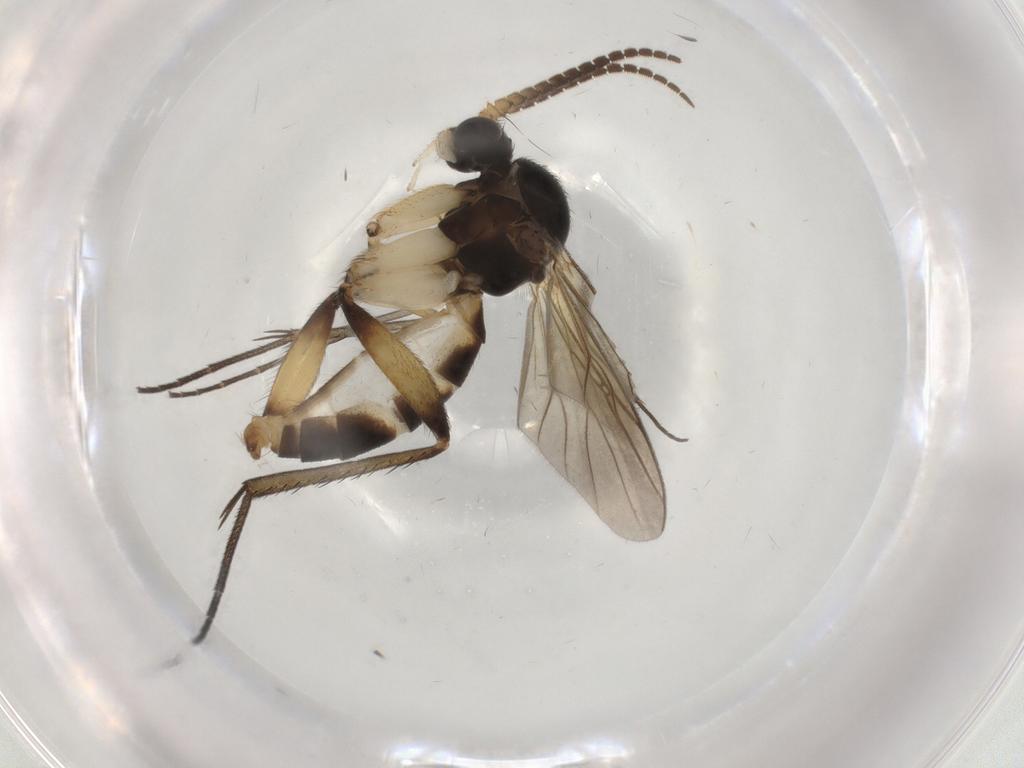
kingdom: Animalia
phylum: Arthropoda
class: Insecta
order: Diptera
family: Mycetophilidae
